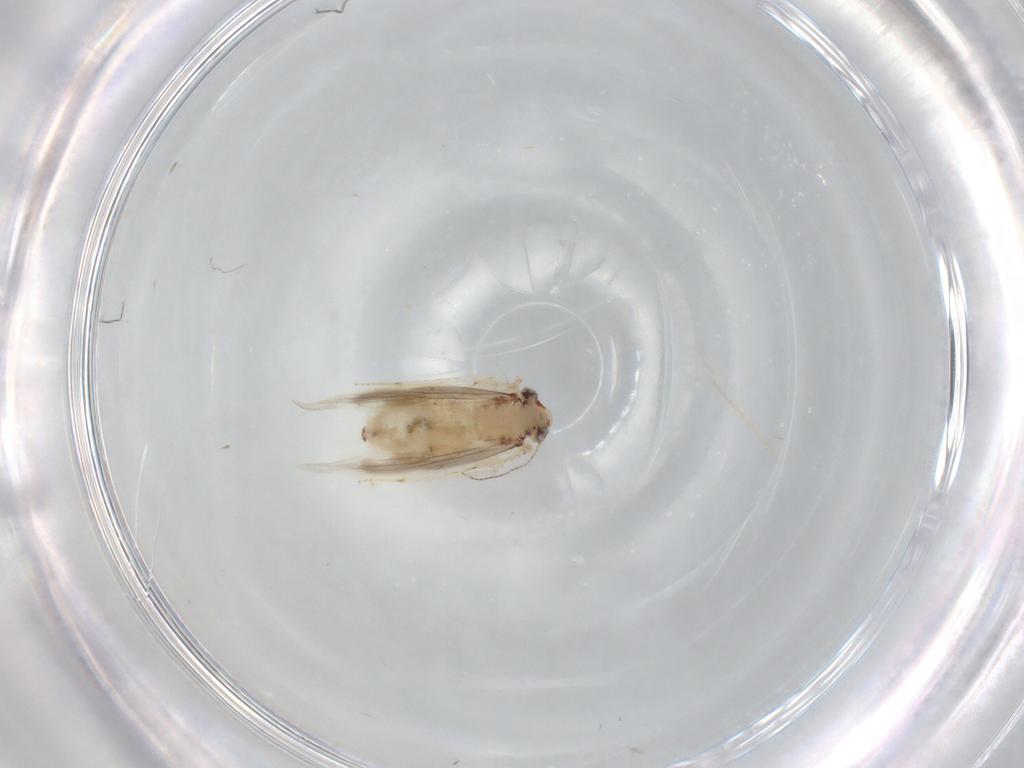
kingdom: Animalia
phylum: Arthropoda
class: Insecta
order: Psocodea
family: Lepidopsocidae
